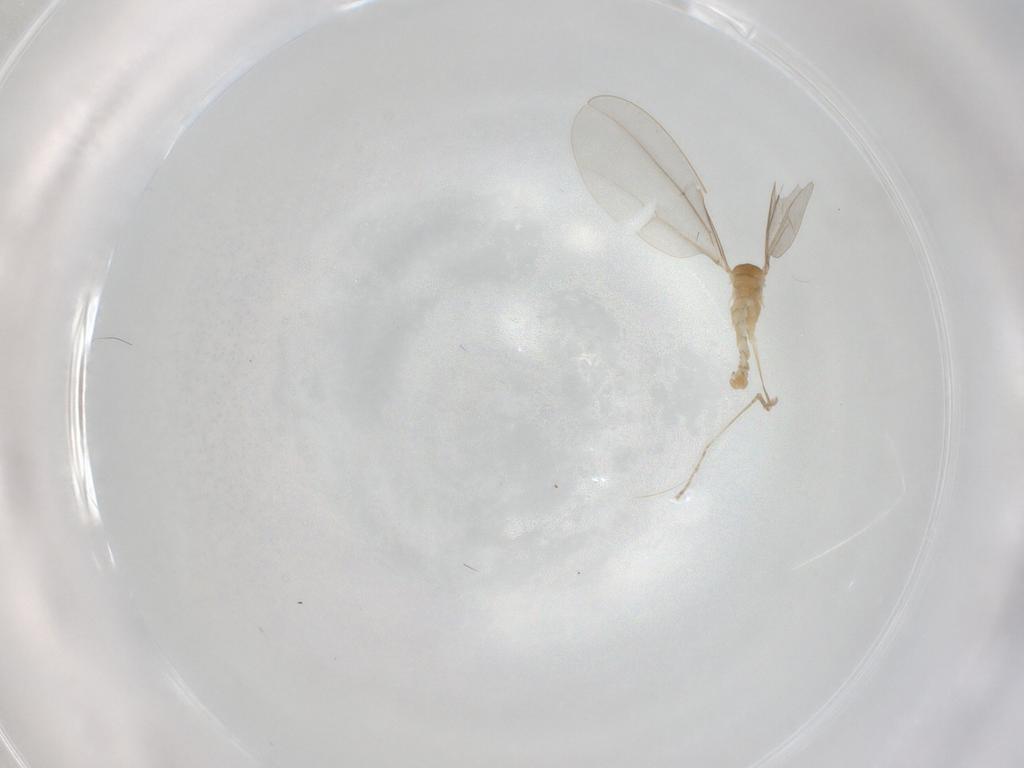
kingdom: Animalia
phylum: Arthropoda
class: Insecta
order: Diptera
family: Cecidomyiidae
